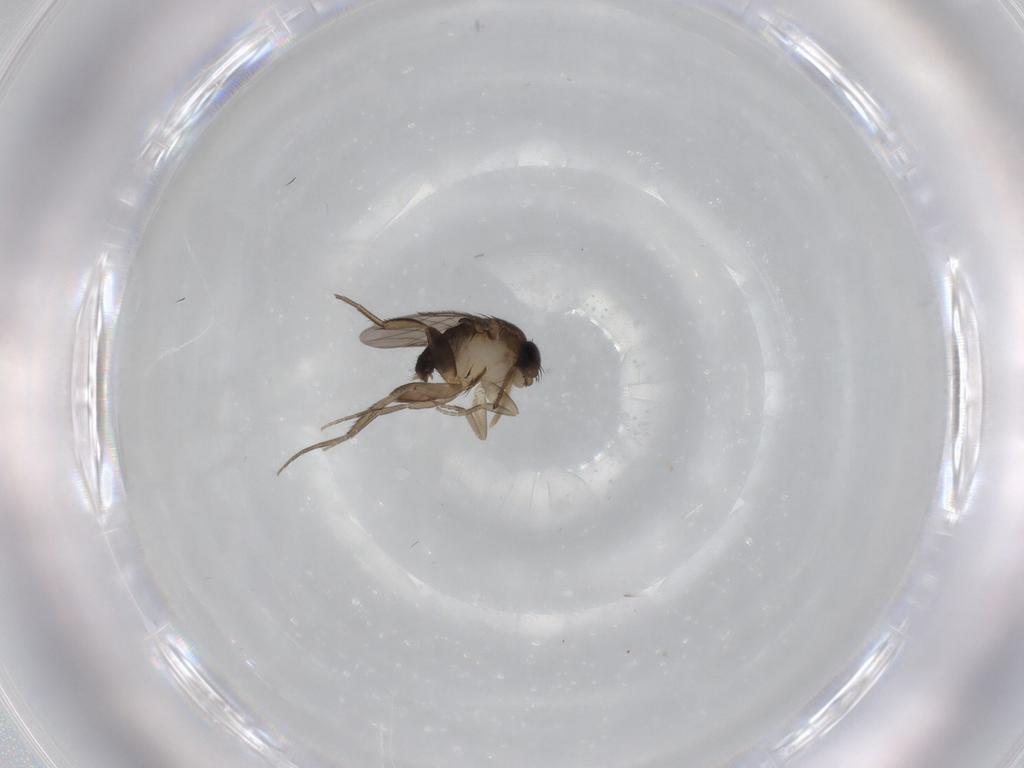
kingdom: Animalia
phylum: Arthropoda
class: Insecta
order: Diptera
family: Phoridae
